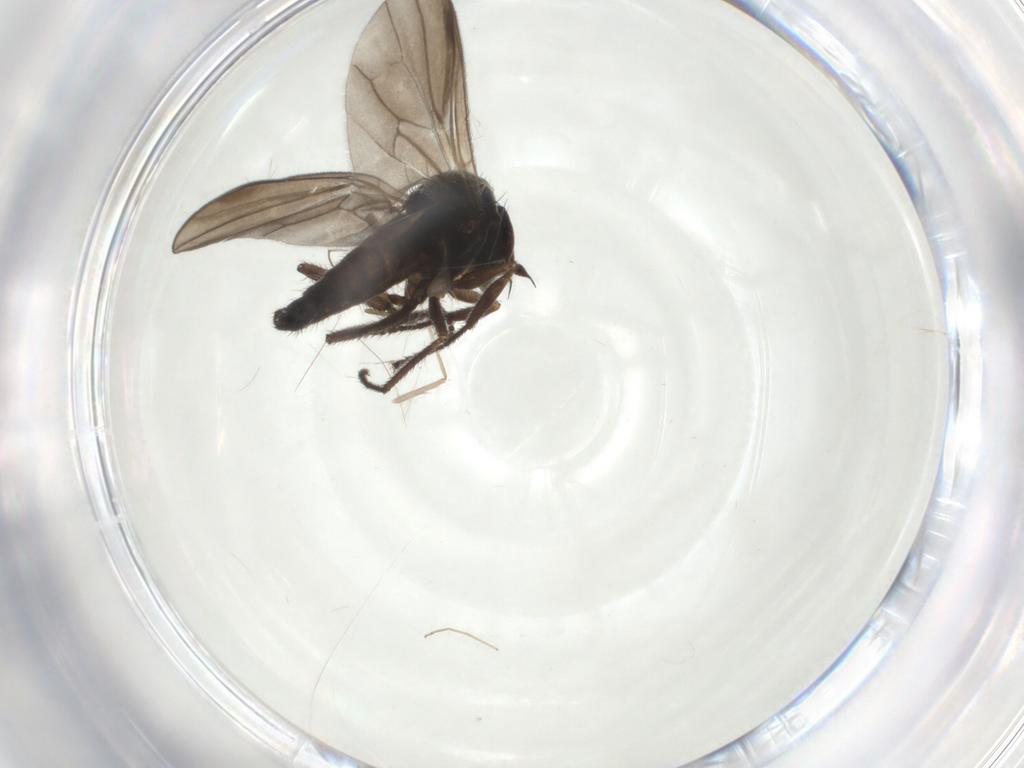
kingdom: Animalia
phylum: Arthropoda
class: Insecta
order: Diptera
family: Hybotidae
